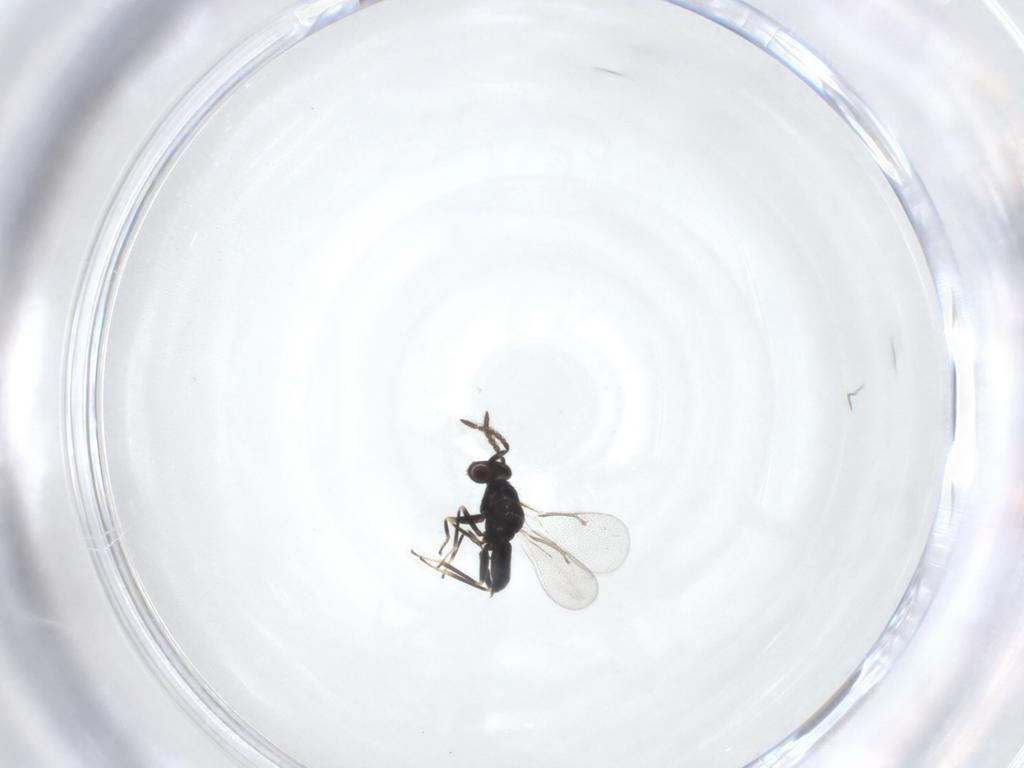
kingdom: Animalia
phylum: Arthropoda
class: Insecta
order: Hymenoptera
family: Eulophidae
